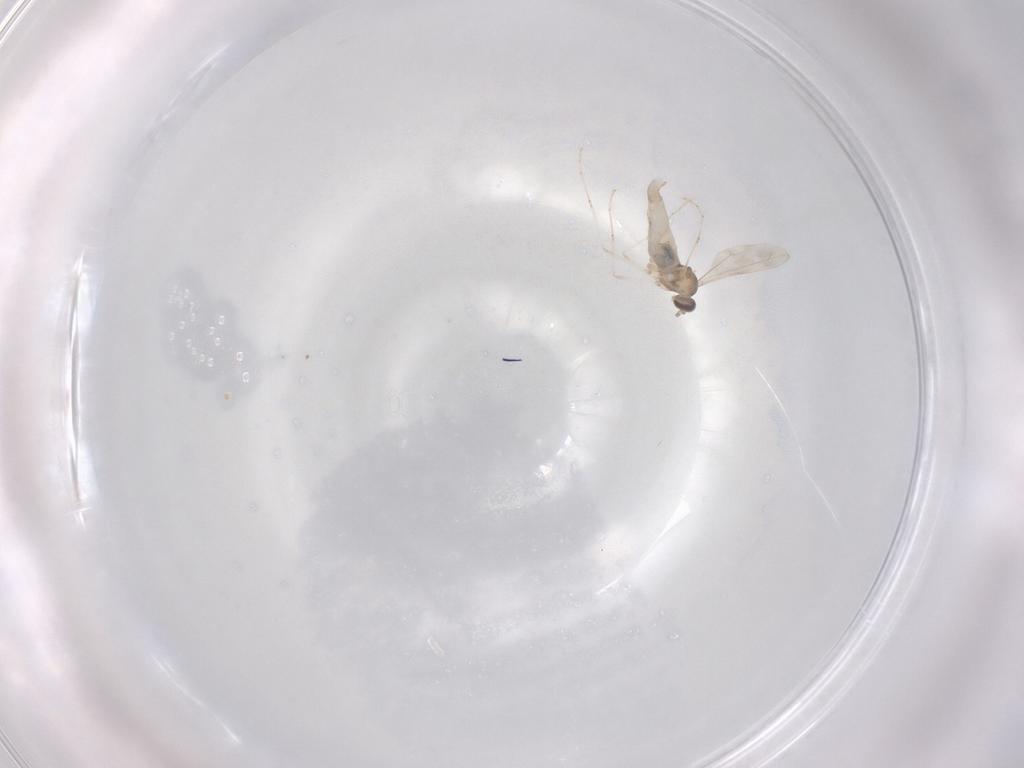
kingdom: Animalia
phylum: Arthropoda
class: Insecta
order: Diptera
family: Cecidomyiidae
